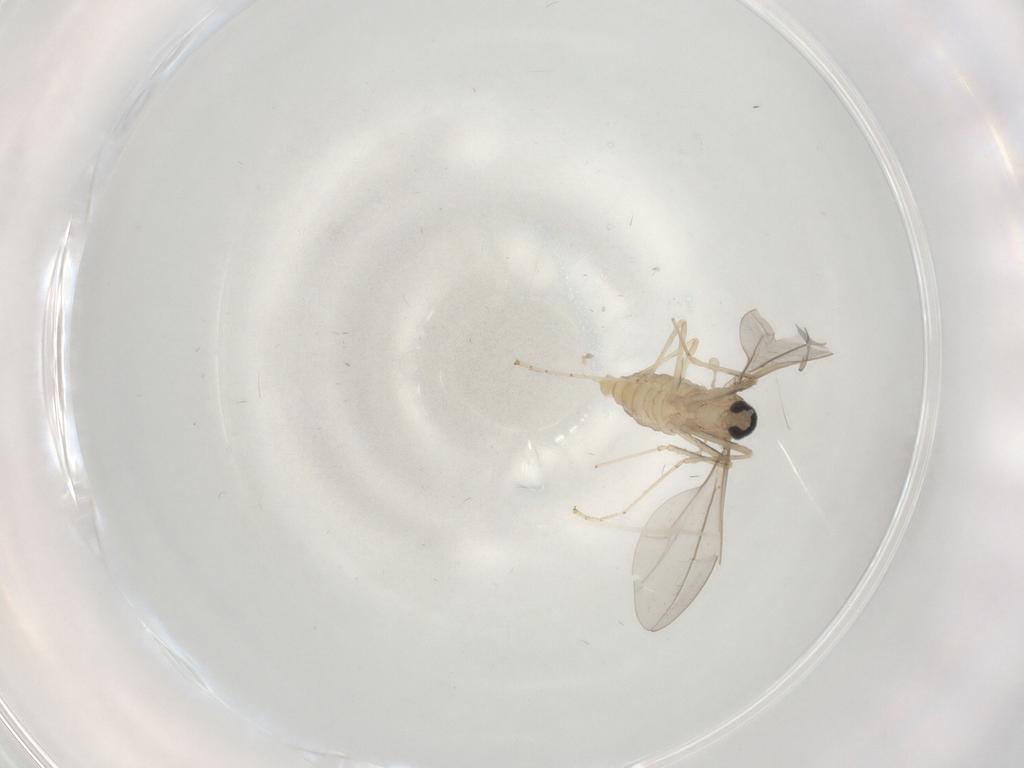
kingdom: Animalia
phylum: Arthropoda
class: Insecta
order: Diptera
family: Cecidomyiidae
